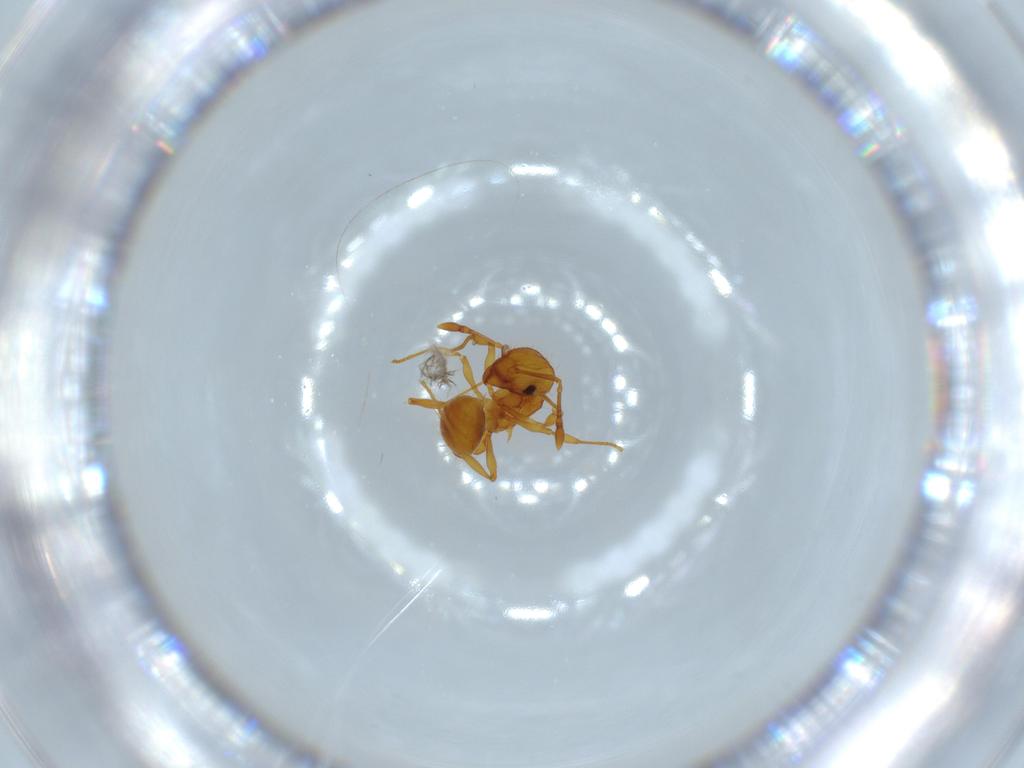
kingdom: Animalia
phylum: Arthropoda
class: Insecta
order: Hymenoptera
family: Formicidae
